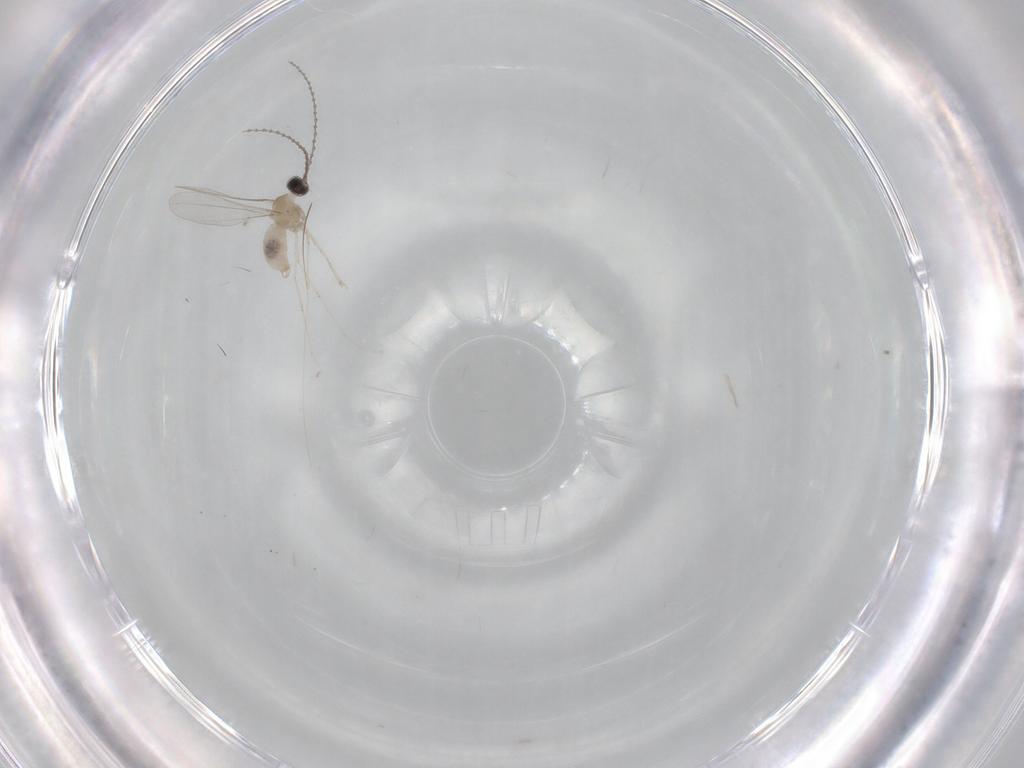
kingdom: Animalia
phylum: Arthropoda
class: Insecta
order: Diptera
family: Cecidomyiidae
